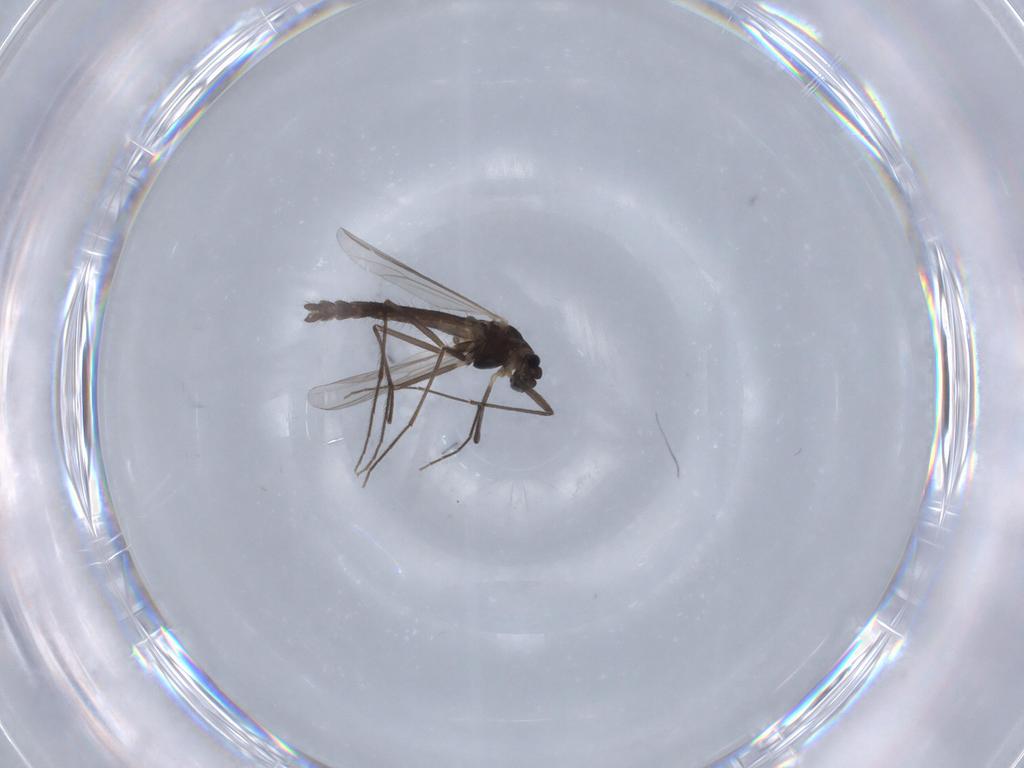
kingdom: Animalia
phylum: Arthropoda
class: Insecta
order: Diptera
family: Chironomidae
